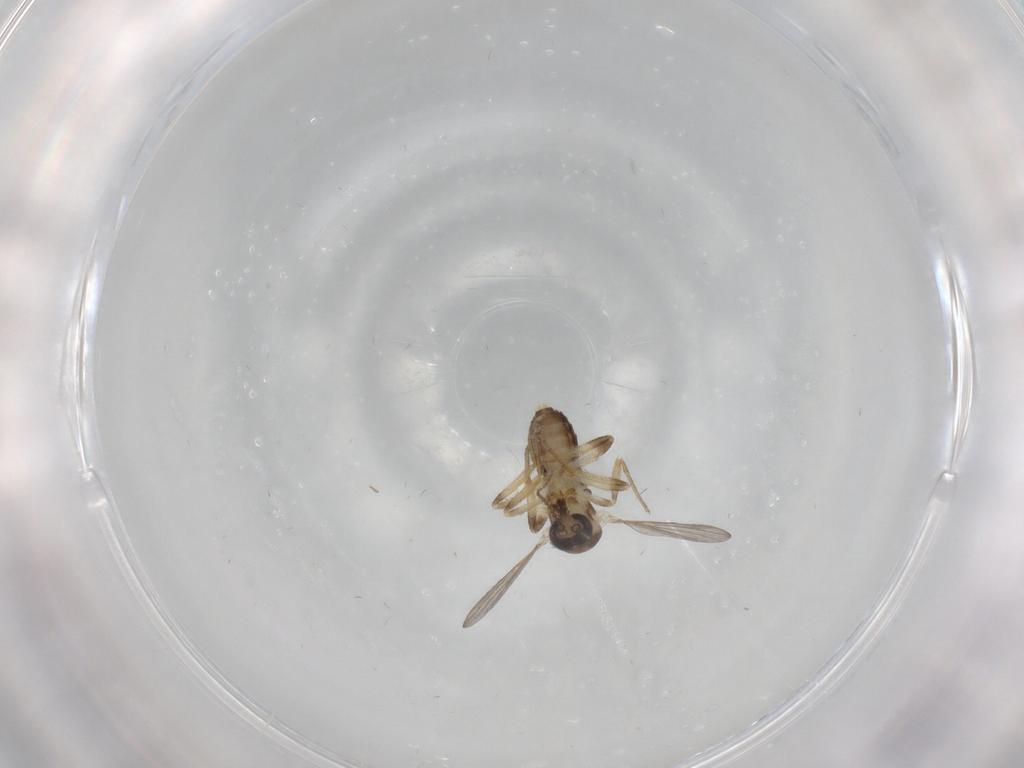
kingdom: Animalia
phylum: Arthropoda
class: Insecta
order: Diptera
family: Ceratopogonidae
